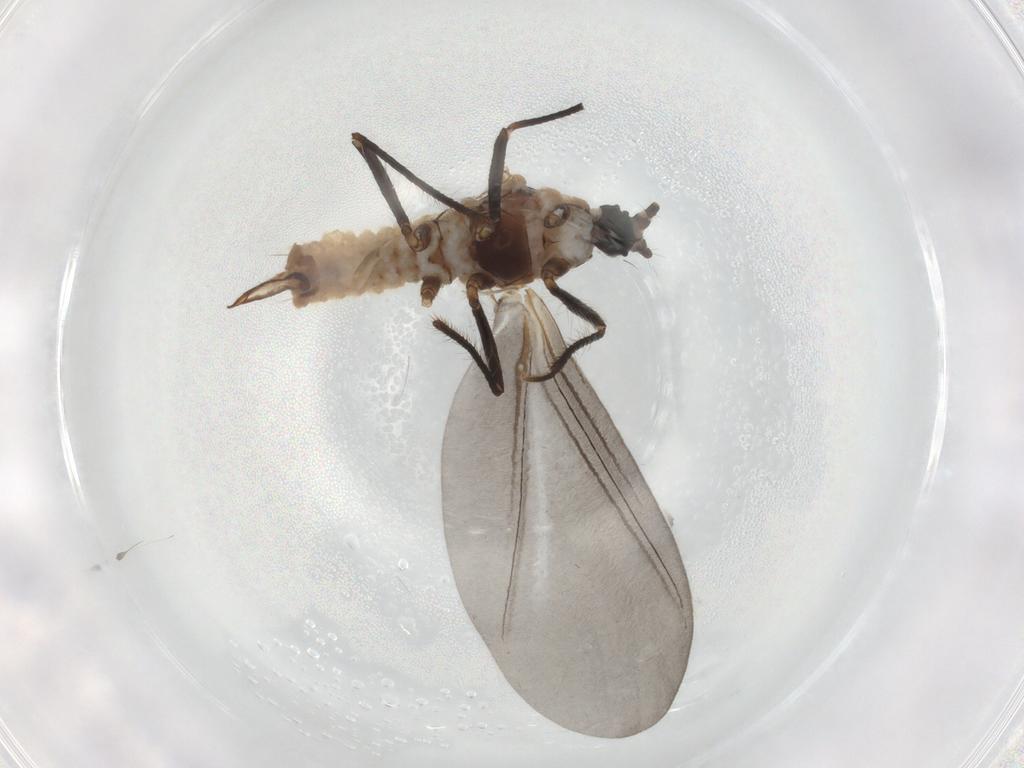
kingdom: Animalia
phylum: Arthropoda
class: Insecta
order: Hemiptera
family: Putoidae
